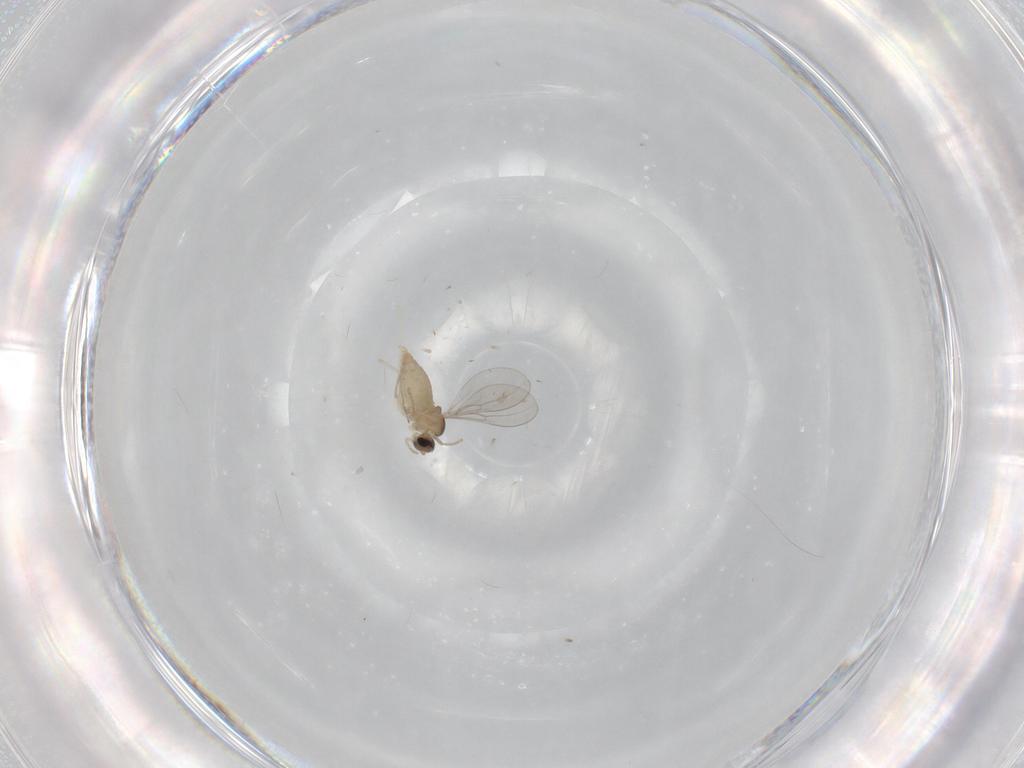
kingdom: Animalia
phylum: Arthropoda
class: Insecta
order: Diptera
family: Cecidomyiidae
